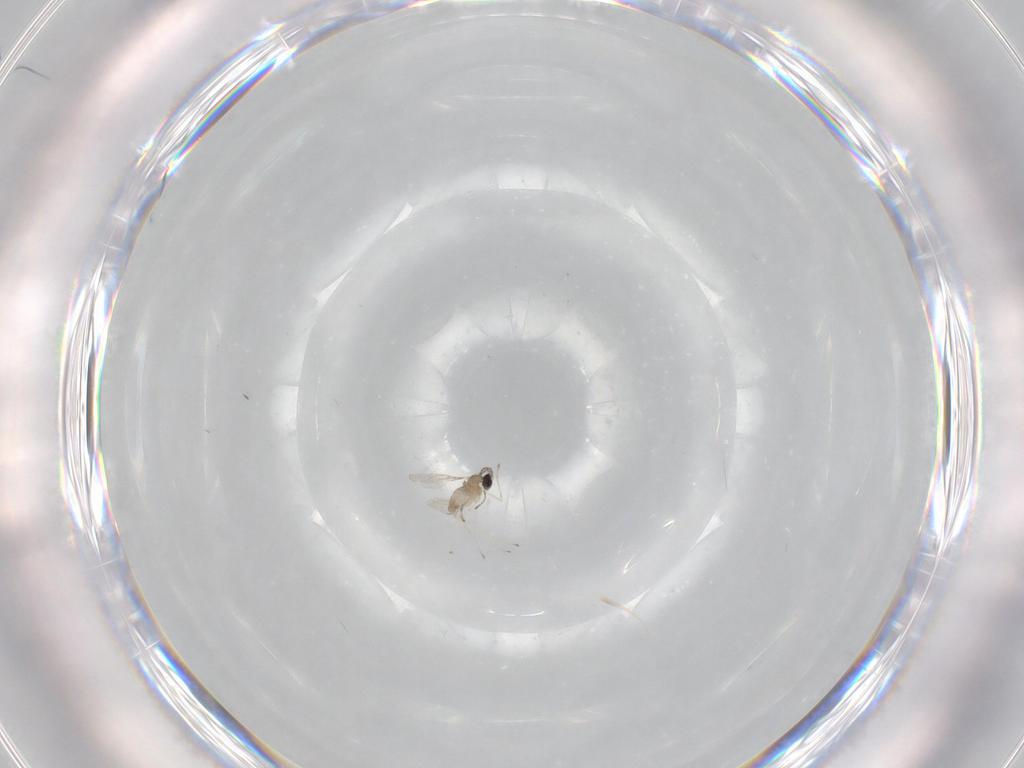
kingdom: Animalia
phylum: Arthropoda
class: Insecta
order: Diptera
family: Cecidomyiidae
